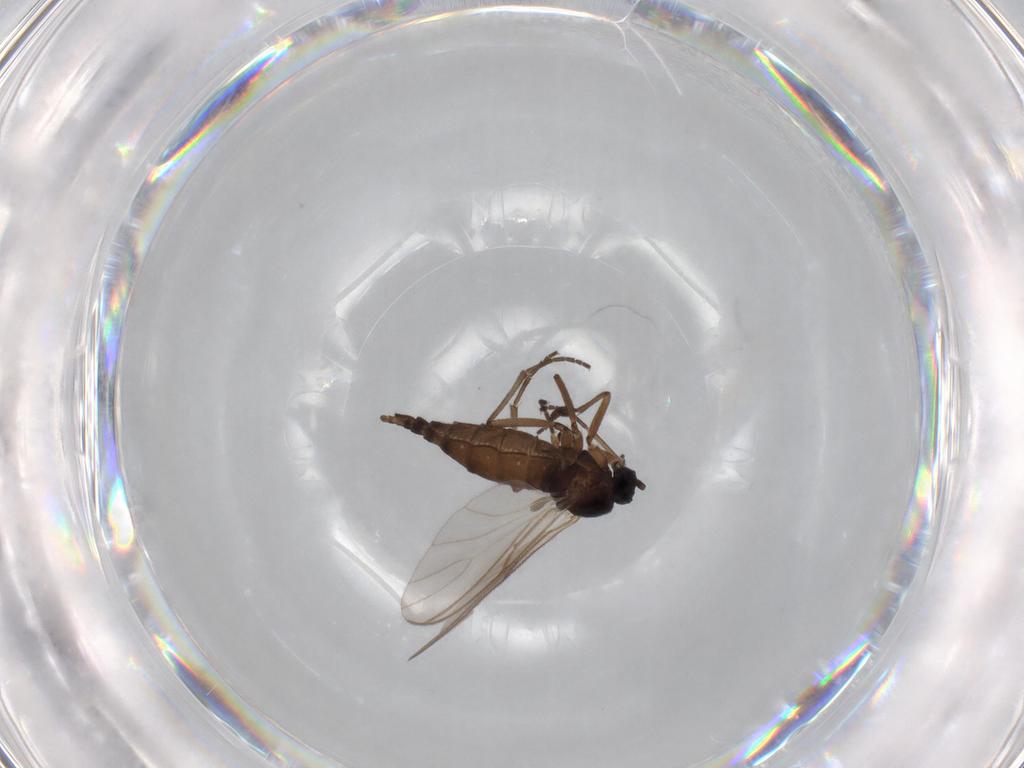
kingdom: Animalia
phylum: Arthropoda
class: Insecta
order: Diptera
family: Sciaridae
